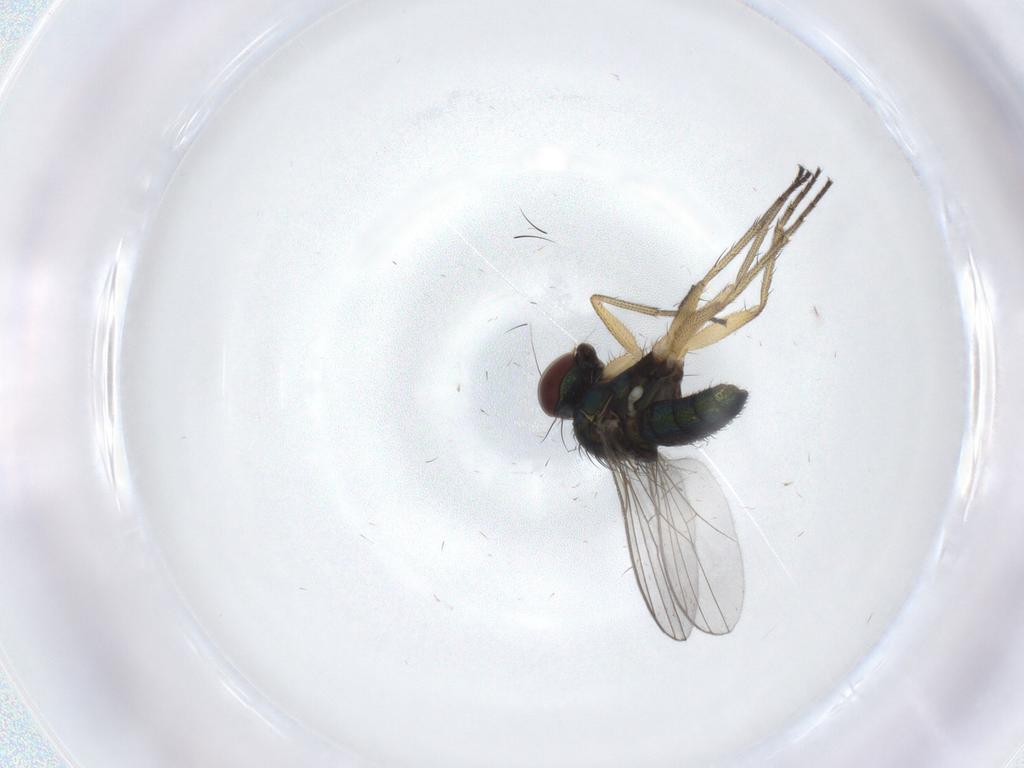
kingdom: Animalia
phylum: Arthropoda
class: Insecta
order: Diptera
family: Dolichopodidae
